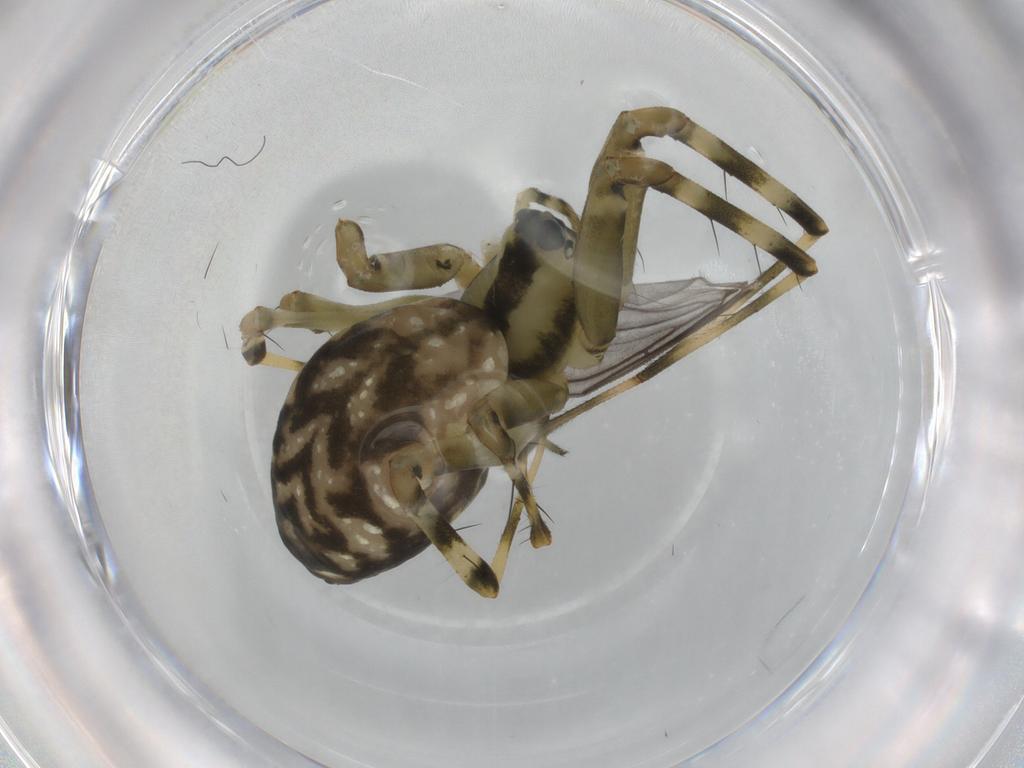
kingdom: Animalia
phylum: Arthropoda
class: Arachnida
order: Araneae
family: Linyphiidae
